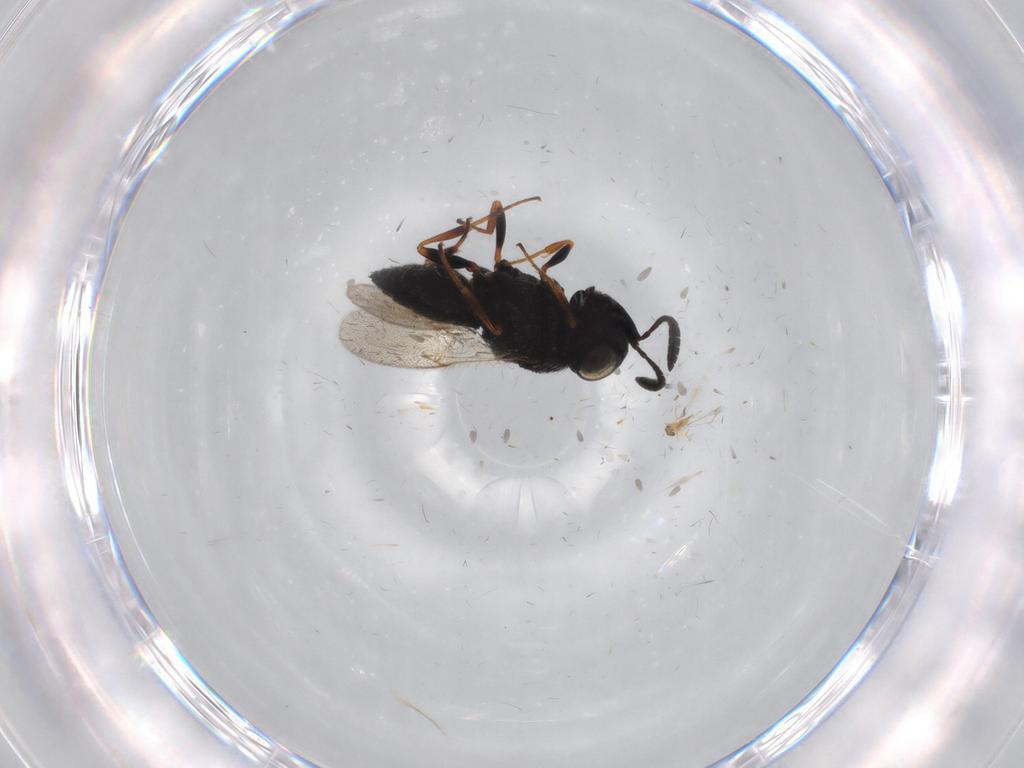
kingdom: Animalia
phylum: Arthropoda
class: Insecta
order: Hymenoptera
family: Scelionidae
